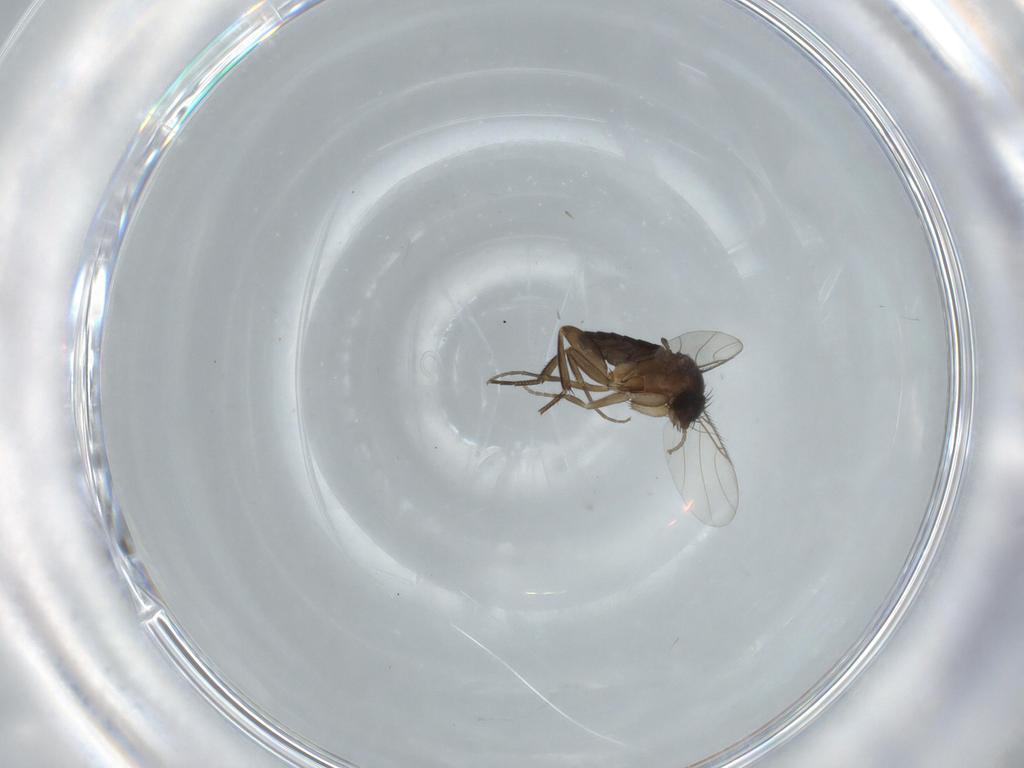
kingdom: Animalia
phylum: Arthropoda
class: Insecta
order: Diptera
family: Phoridae
